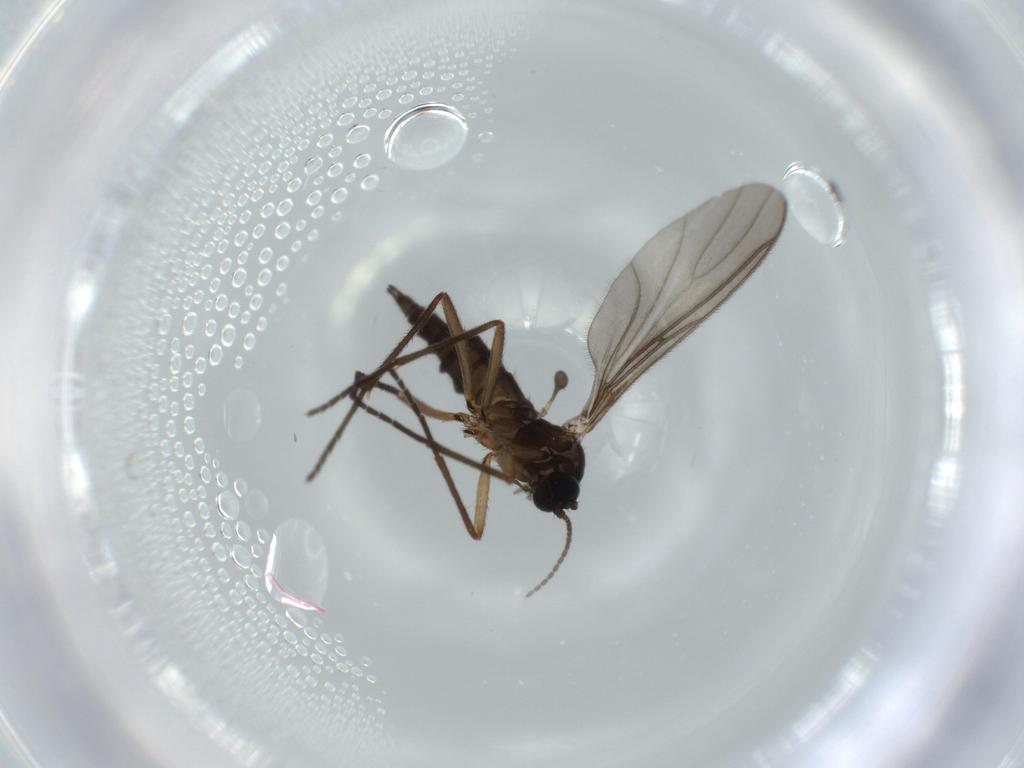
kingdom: Animalia
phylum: Arthropoda
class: Insecta
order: Diptera
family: Sciaridae
